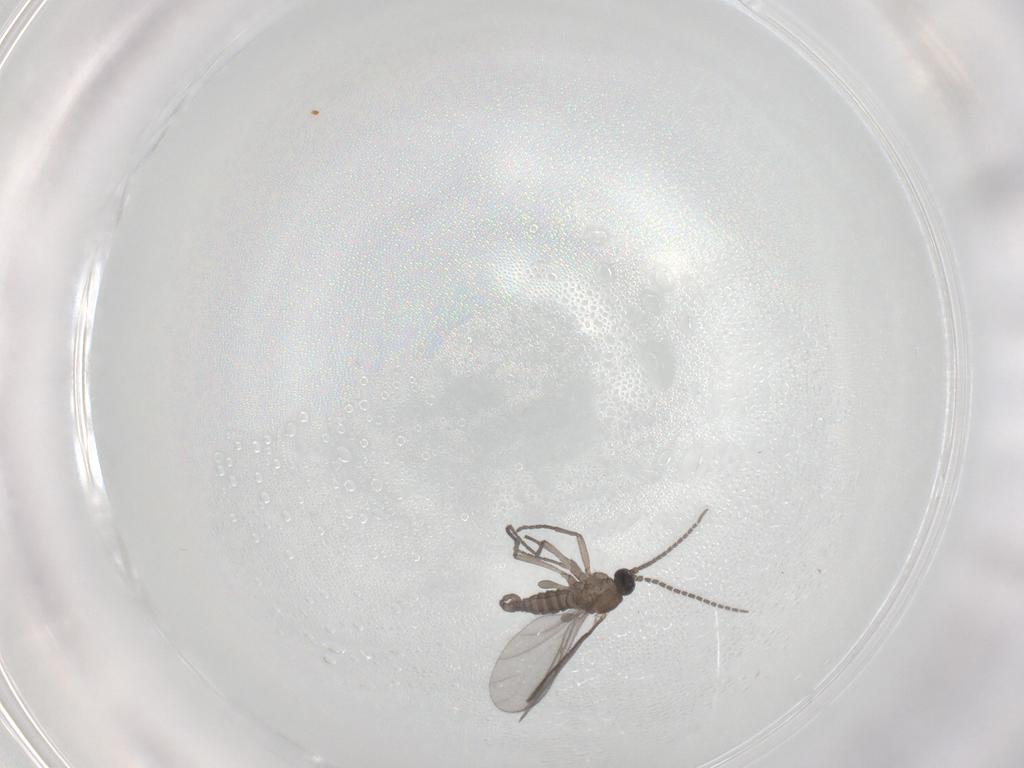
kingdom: Animalia
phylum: Arthropoda
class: Insecta
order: Diptera
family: Sciaridae
